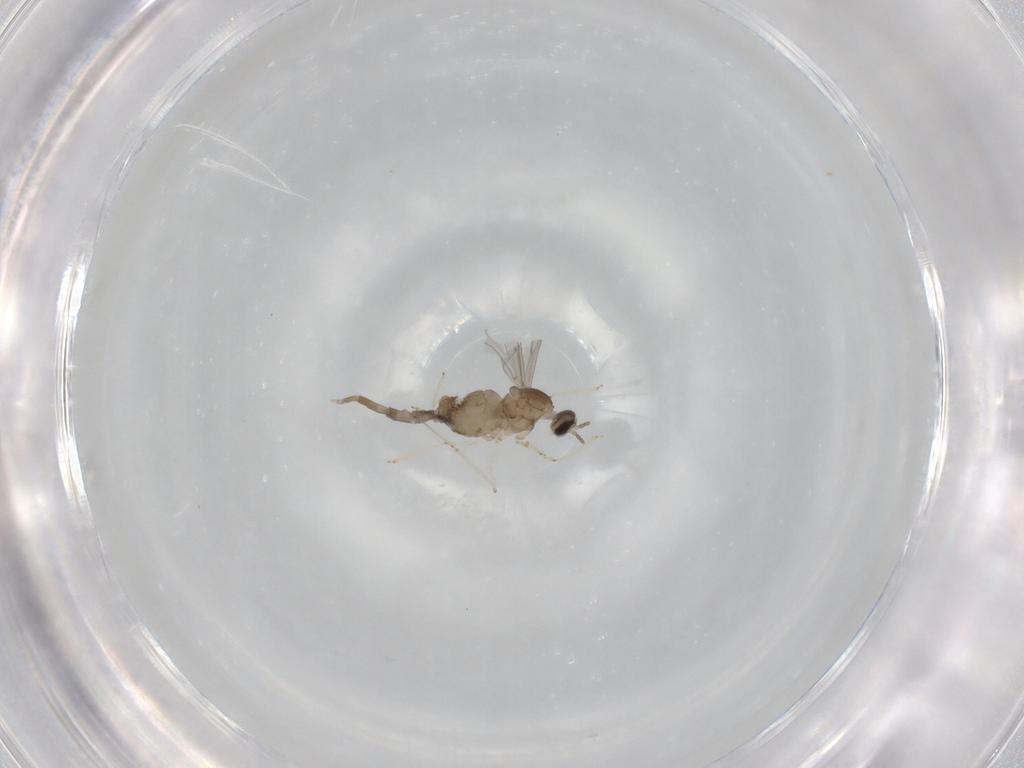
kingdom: Animalia
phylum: Arthropoda
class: Insecta
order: Diptera
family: Cecidomyiidae
